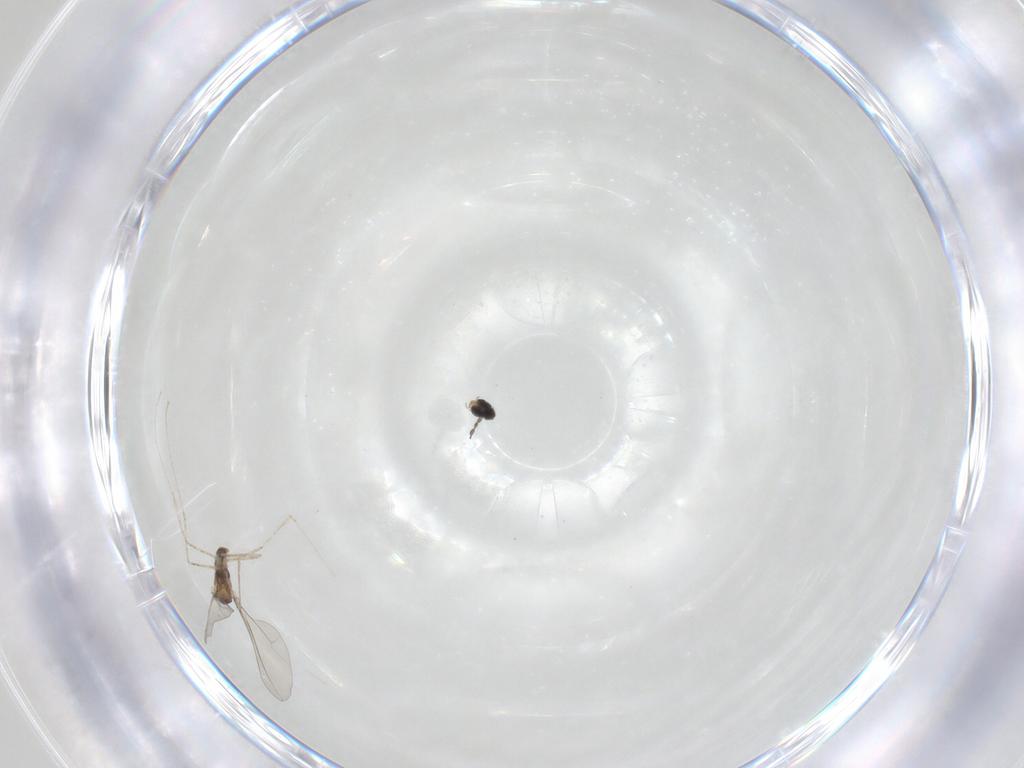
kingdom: Animalia
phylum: Arthropoda
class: Insecta
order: Diptera
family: Cecidomyiidae
